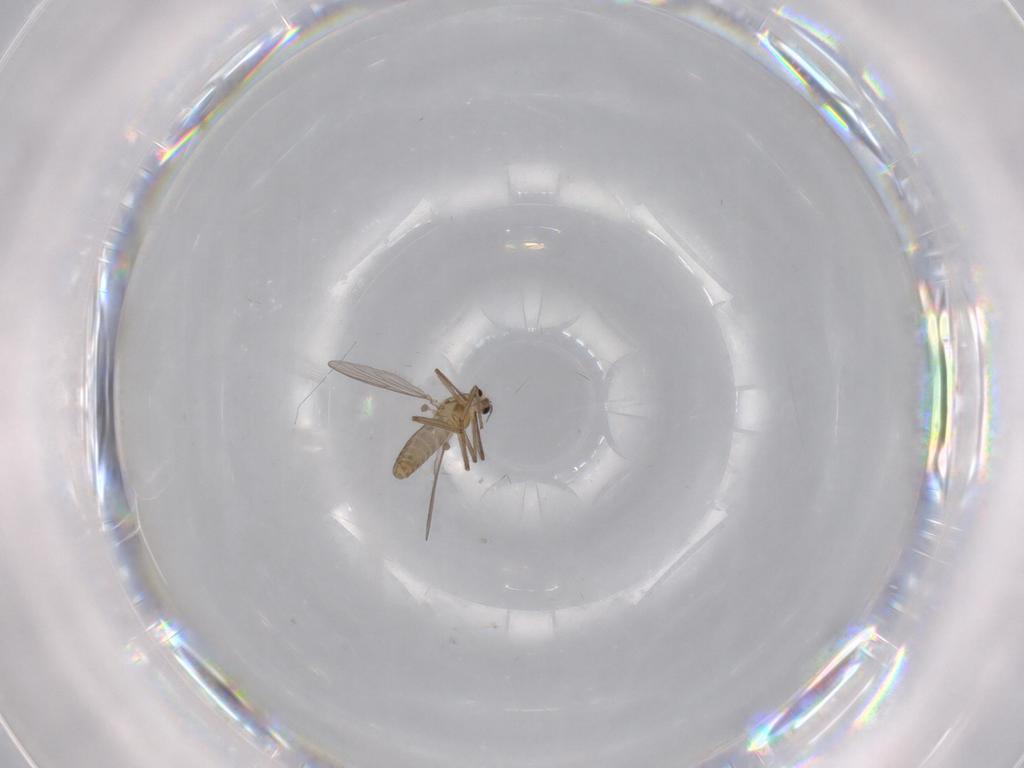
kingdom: Animalia
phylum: Arthropoda
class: Insecta
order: Diptera
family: Chironomidae
